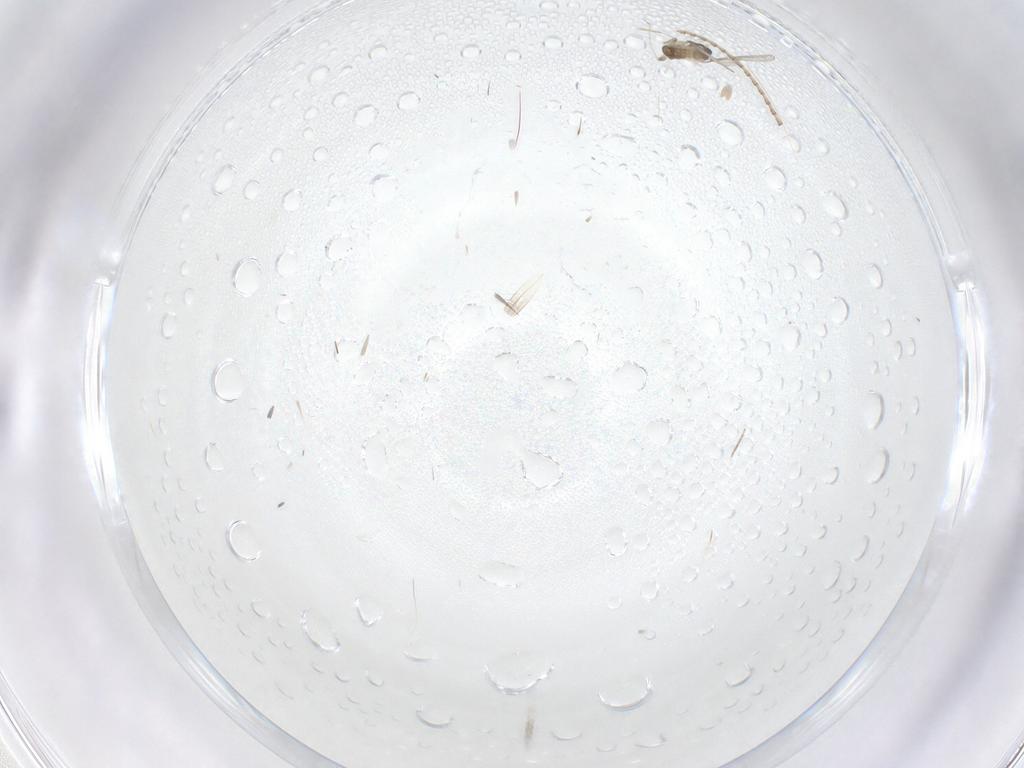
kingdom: Animalia
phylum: Arthropoda
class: Insecta
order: Diptera
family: Cecidomyiidae
